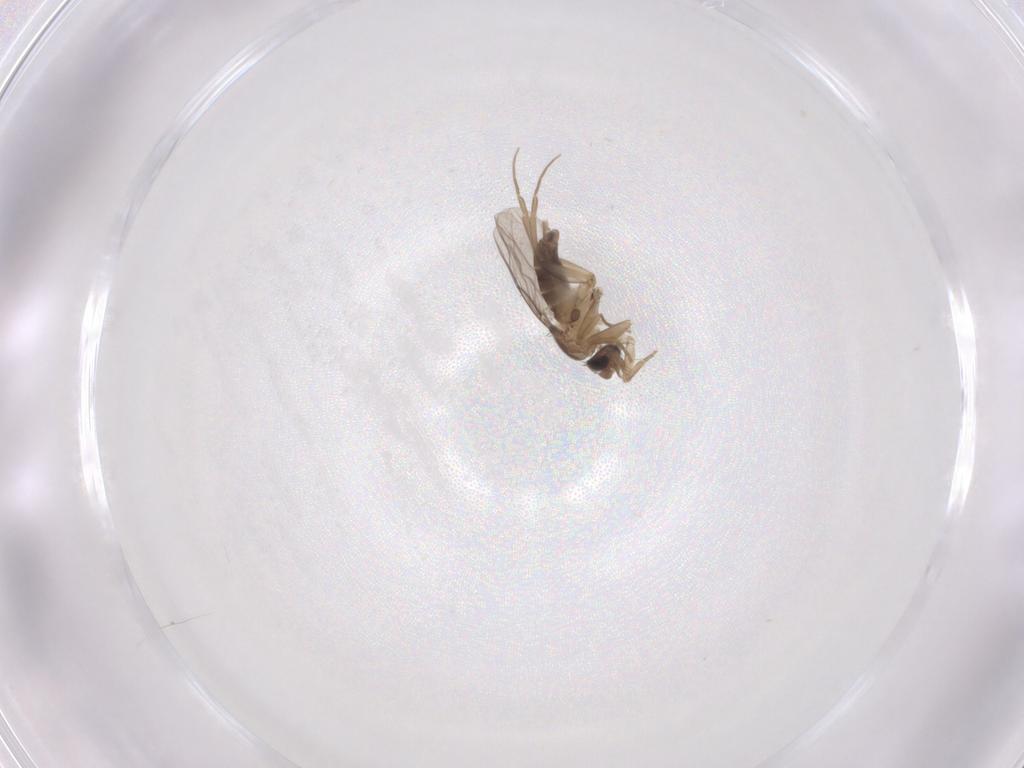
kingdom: Animalia
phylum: Arthropoda
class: Insecta
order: Diptera
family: Phoridae
